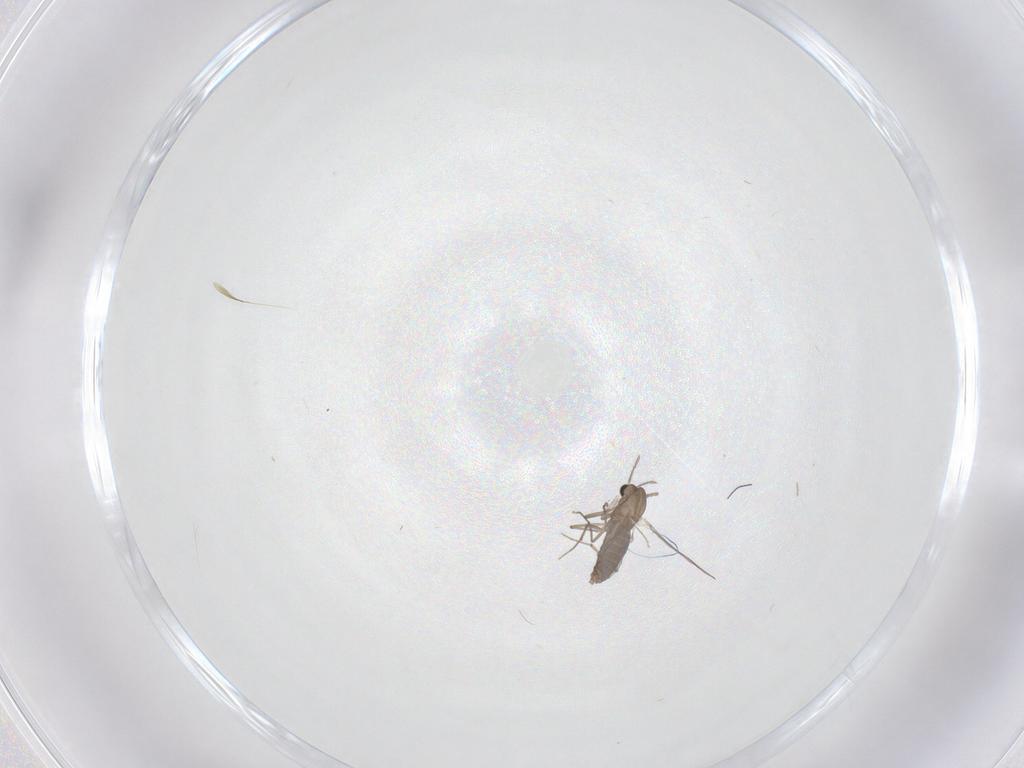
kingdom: Animalia
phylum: Arthropoda
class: Insecta
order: Diptera
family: Psychodidae
